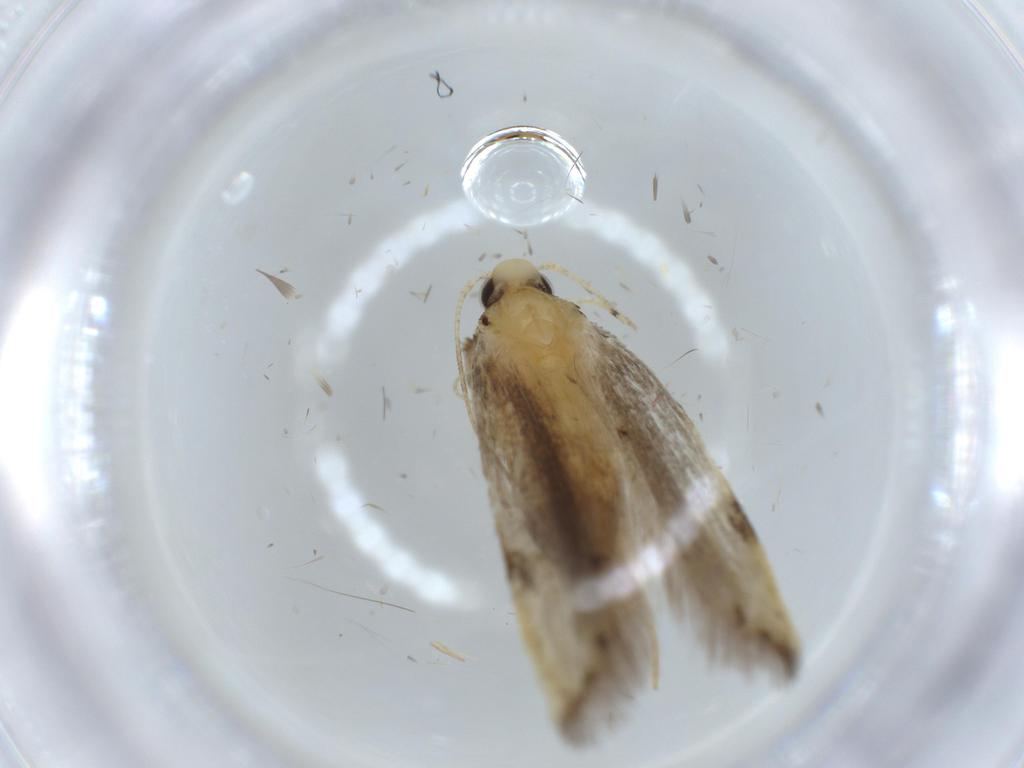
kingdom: Animalia
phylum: Arthropoda
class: Insecta
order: Lepidoptera
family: Autostichidae
